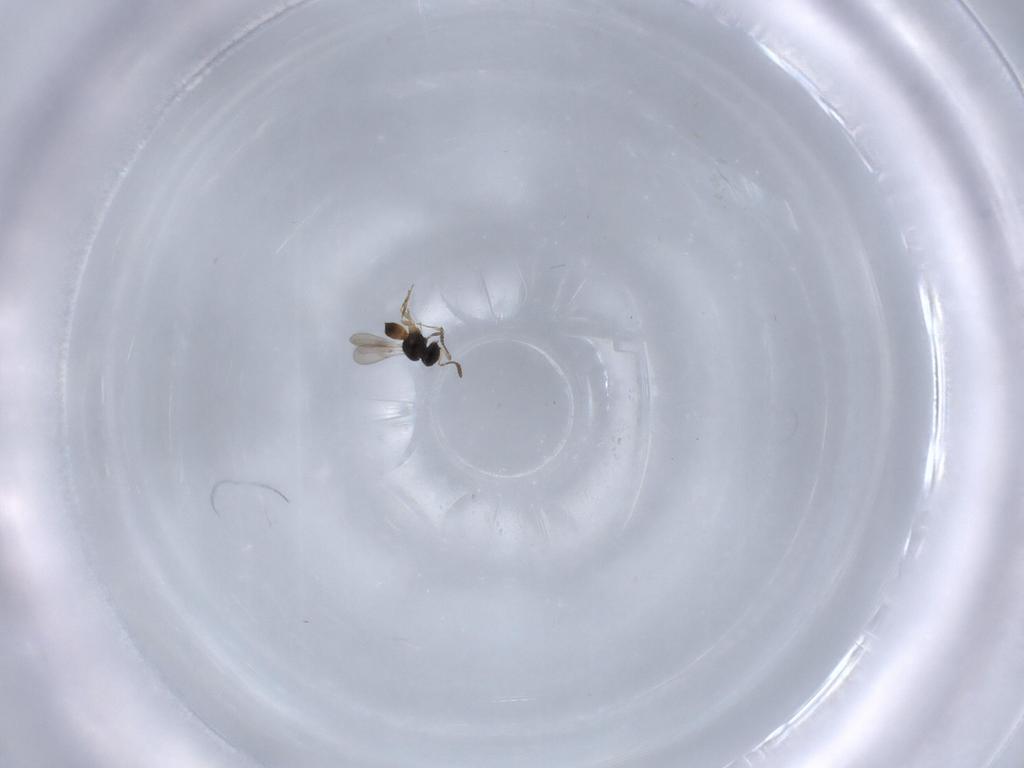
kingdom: Animalia
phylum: Arthropoda
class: Insecta
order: Hymenoptera
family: Scelionidae
